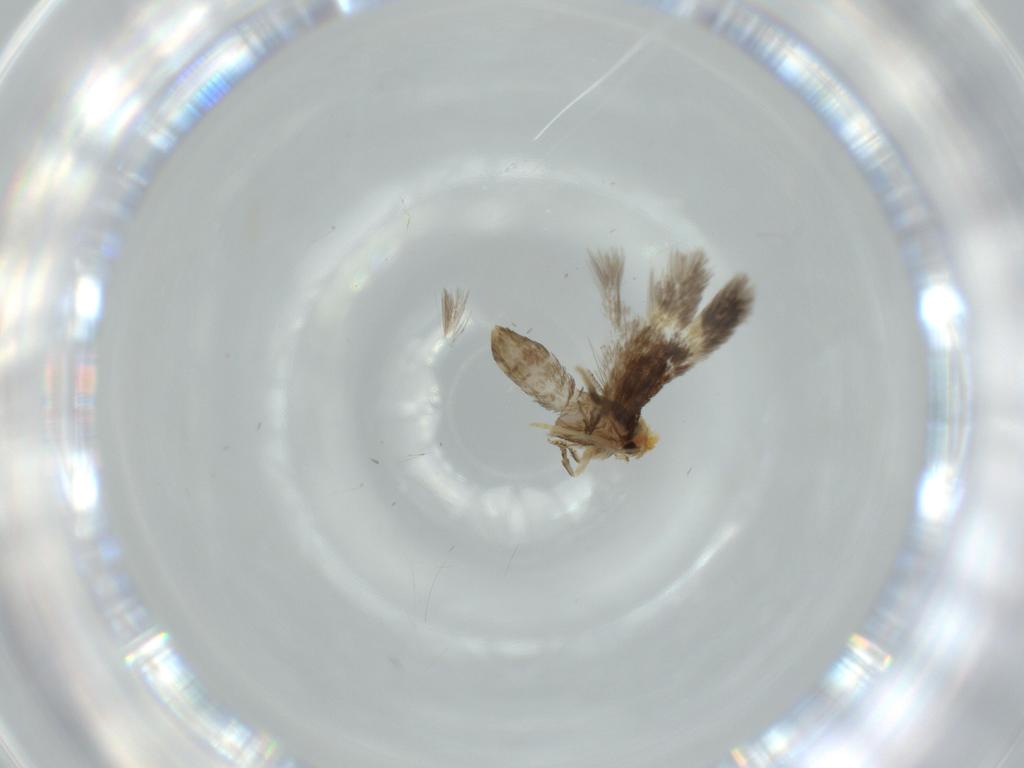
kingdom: Animalia
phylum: Arthropoda
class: Insecta
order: Lepidoptera
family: Nepticulidae
